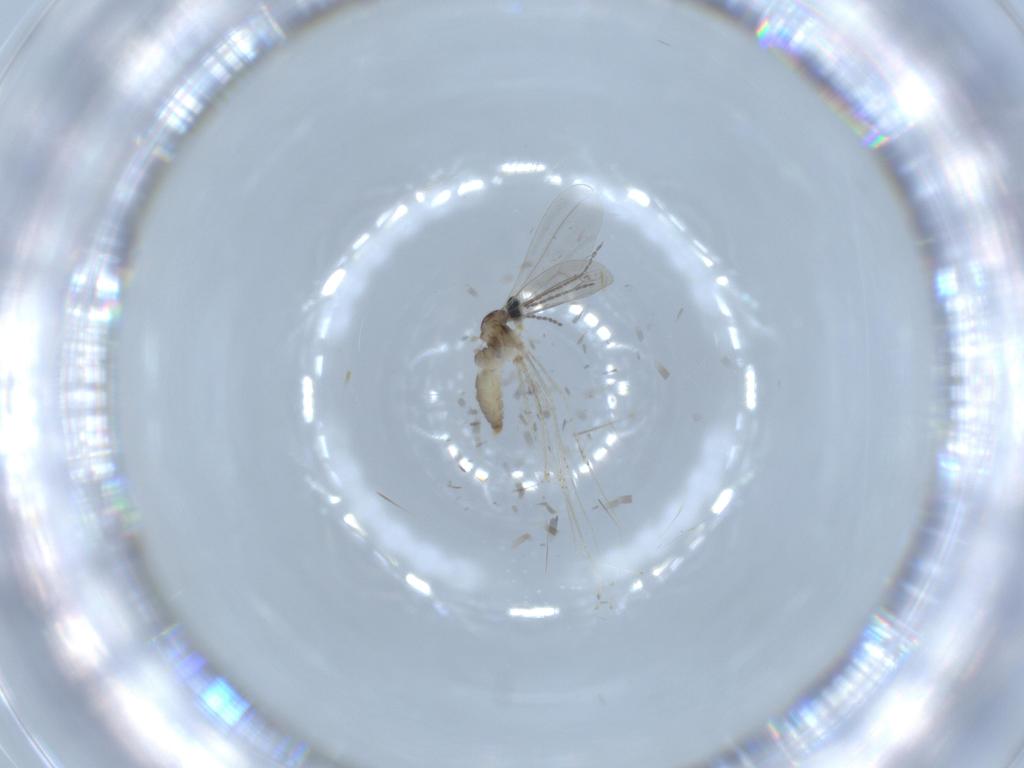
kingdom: Animalia
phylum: Arthropoda
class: Insecta
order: Diptera
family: Cecidomyiidae
